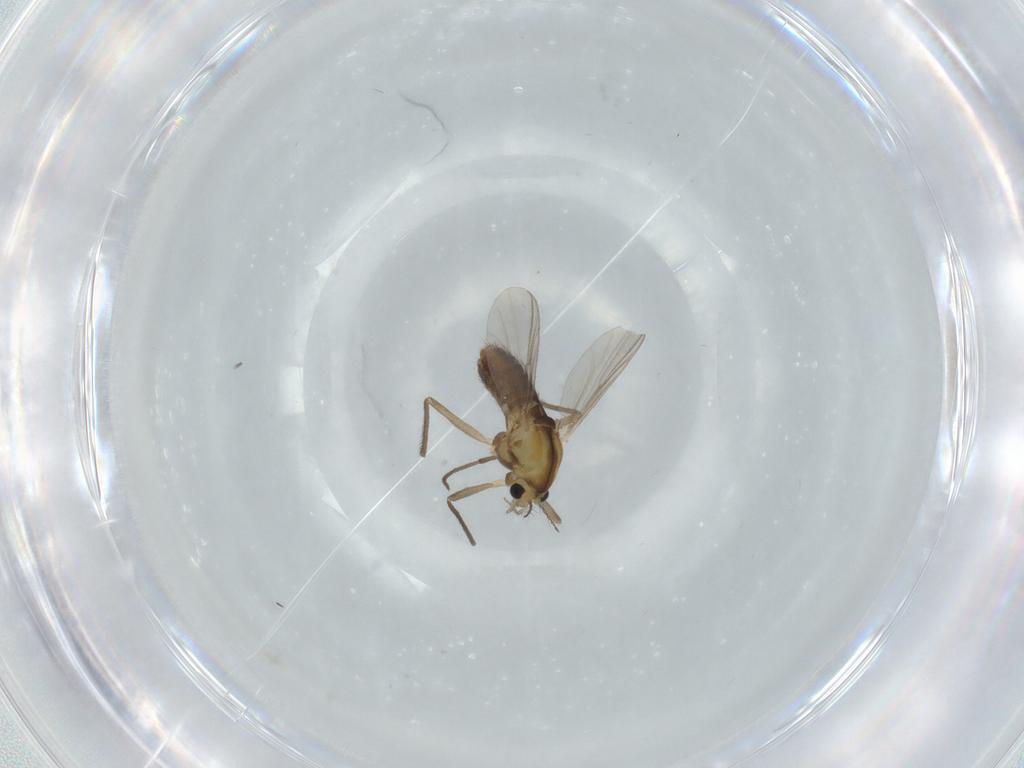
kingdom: Animalia
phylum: Arthropoda
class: Insecta
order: Diptera
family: Chironomidae
